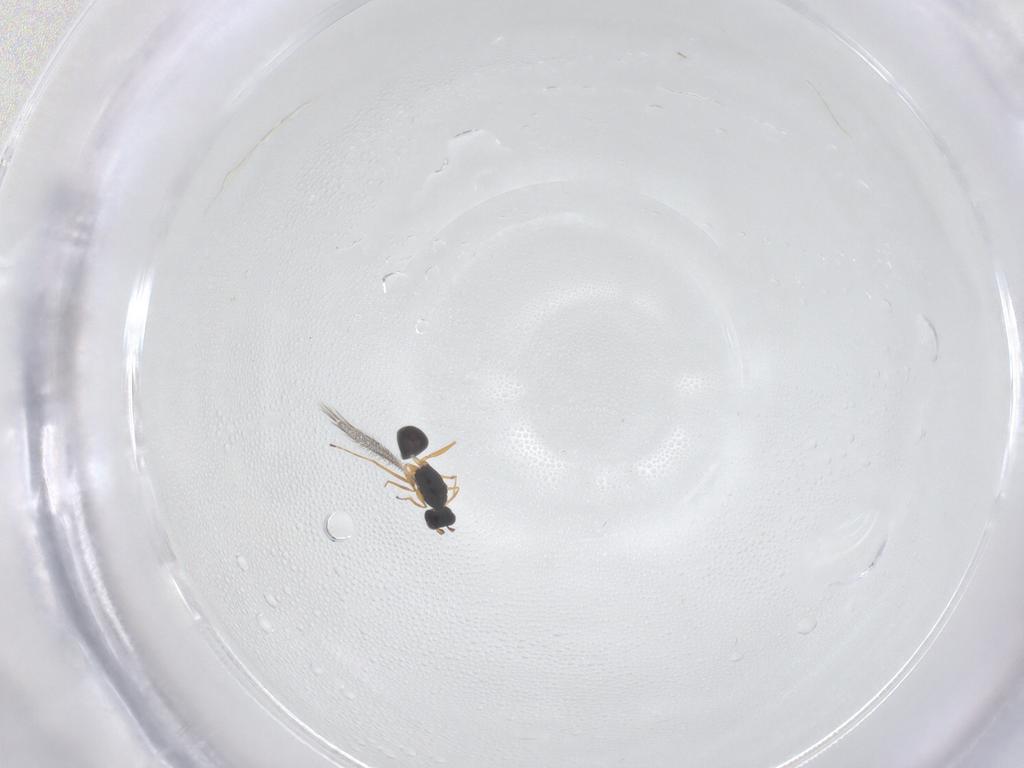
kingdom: Animalia
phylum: Arthropoda
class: Insecta
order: Hymenoptera
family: Mymaridae
